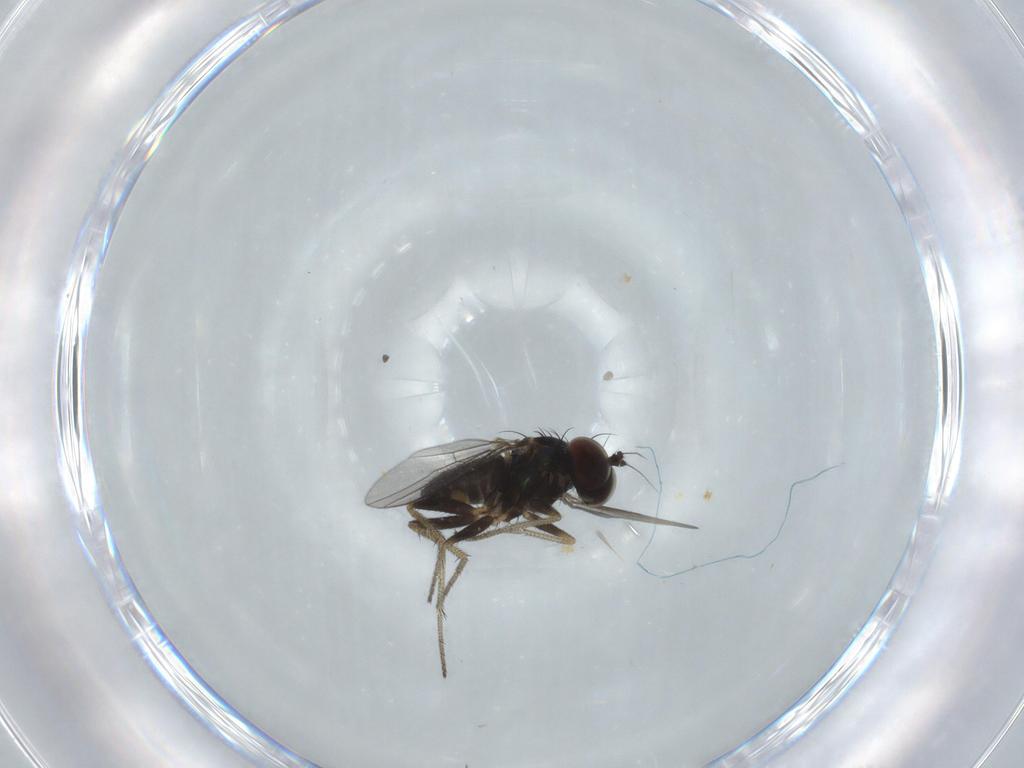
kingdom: Animalia
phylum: Arthropoda
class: Insecta
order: Diptera
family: Dolichopodidae
